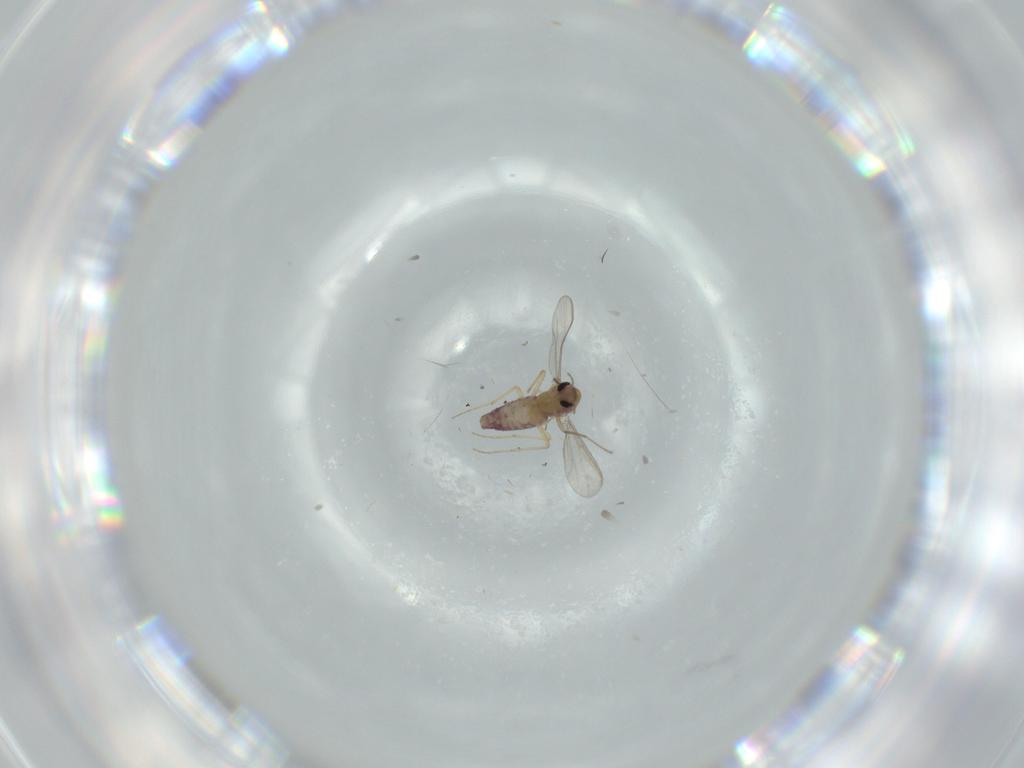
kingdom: Animalia
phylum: Arthropoda
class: Insecta
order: Diptera
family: Chironomidae
